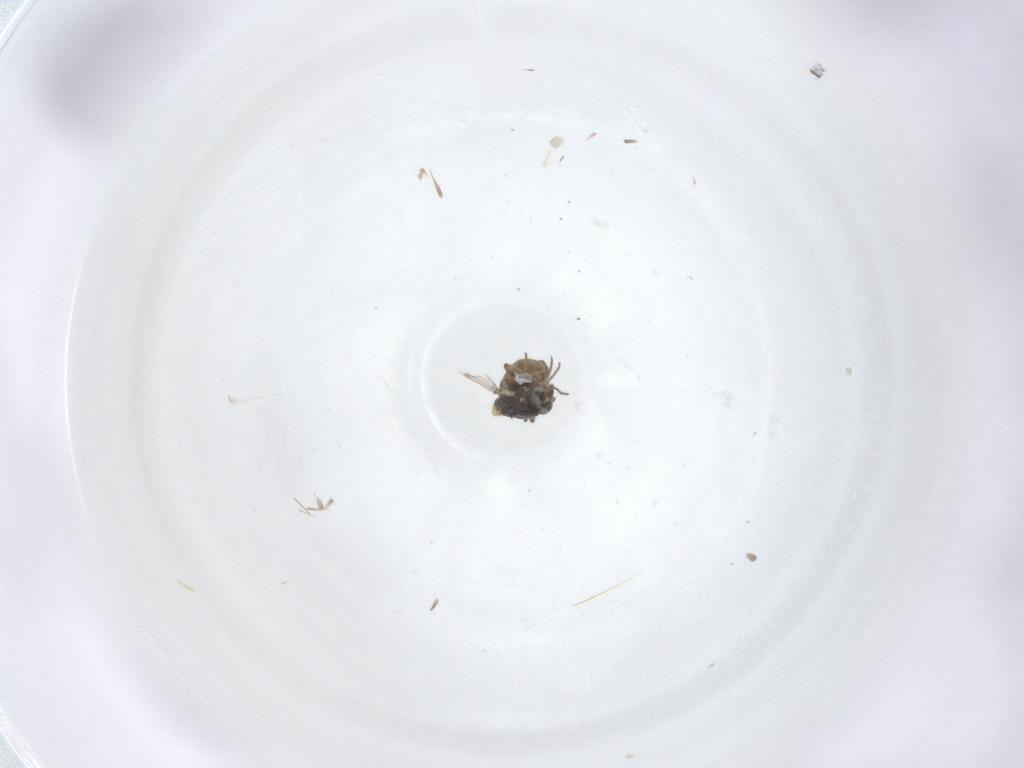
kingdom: Animalia
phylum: Arthropoda
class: Insecta
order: Diptera
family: Ceratopogonidae
